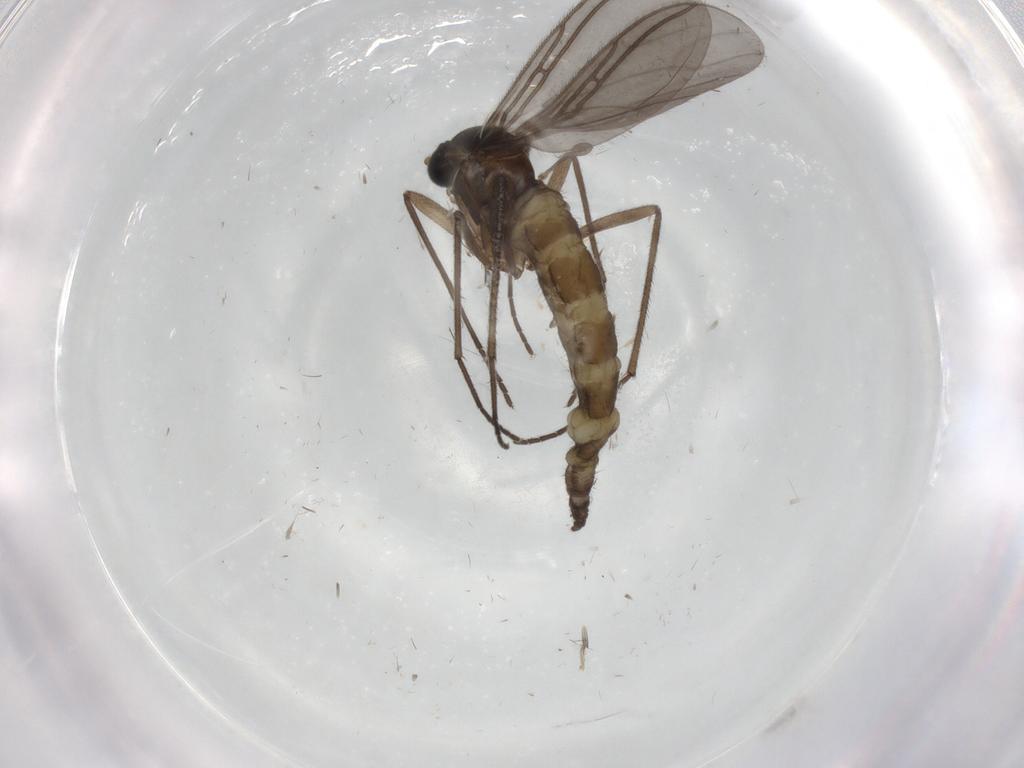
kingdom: Animalia
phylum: Arthropoda
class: Insecta
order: Diptera
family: Sciaridae
